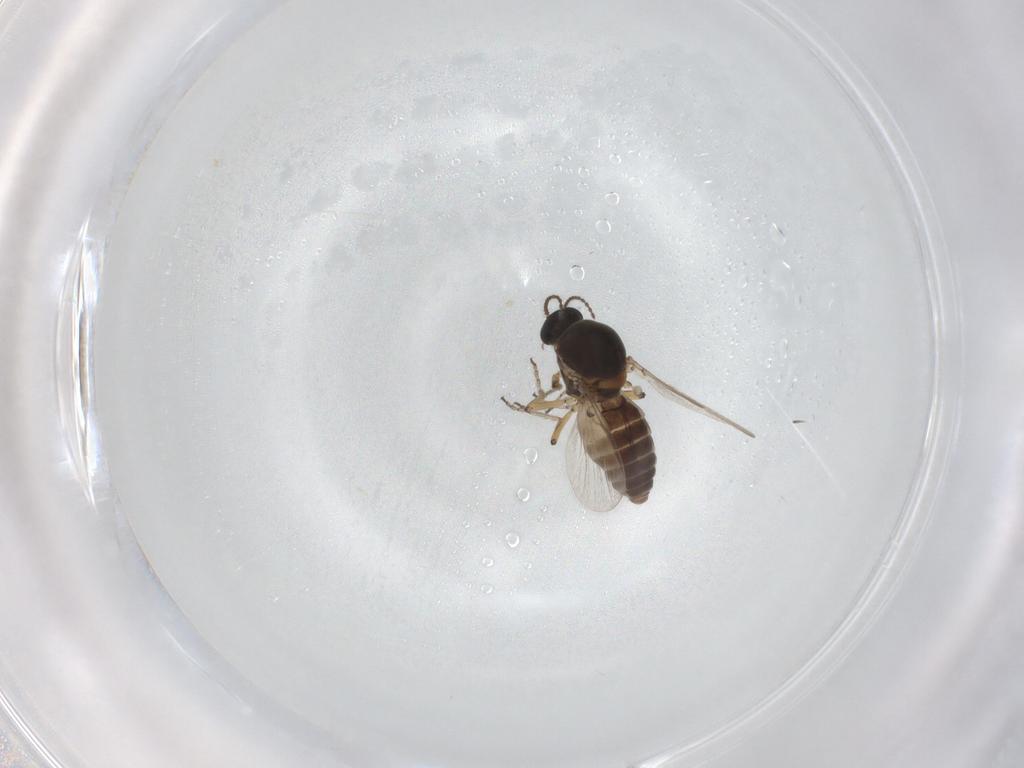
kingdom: Animalia
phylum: Arthropoda
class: Insecta
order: Diptera
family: Ceratopogonidae
